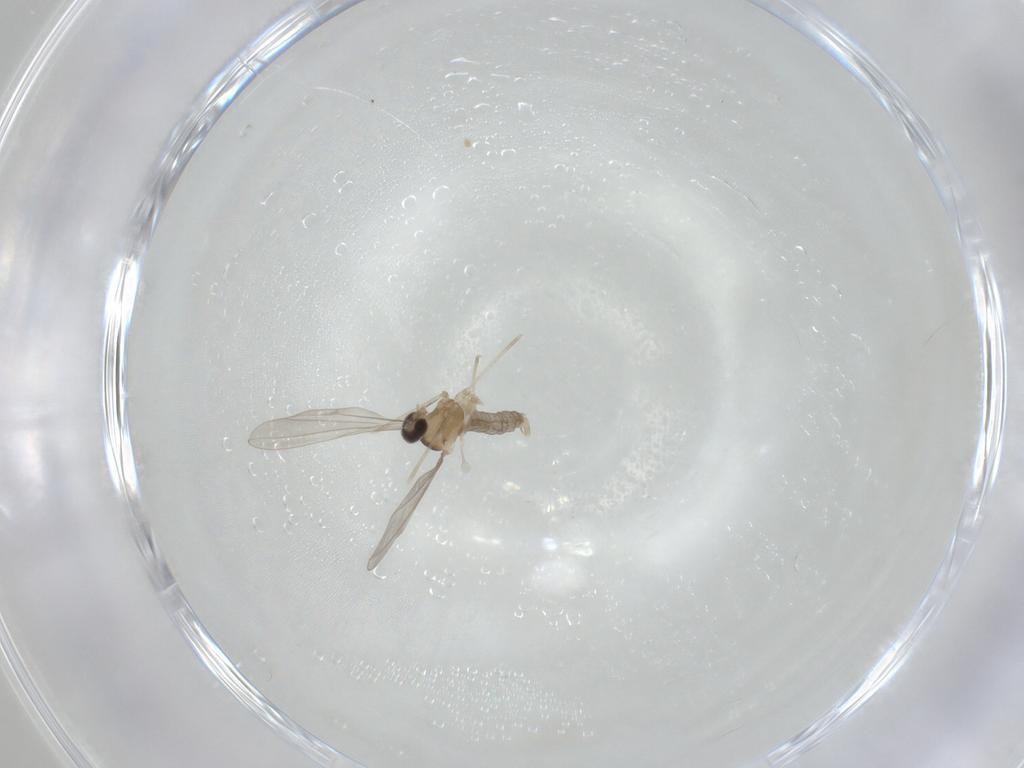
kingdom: Animalia
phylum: Arthropoda
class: Insecta
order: Diptera
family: Cecidomyiidae
